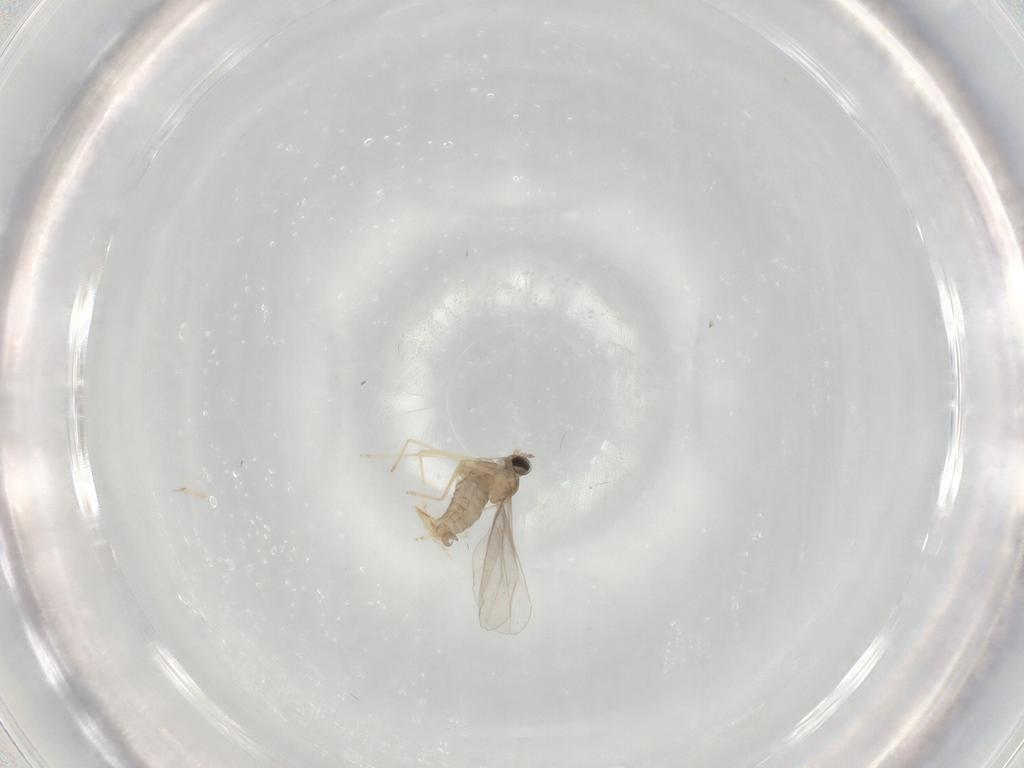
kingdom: Animalia
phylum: Arthropoda
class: Insecta
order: Diptera
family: Cecidomyiidae
